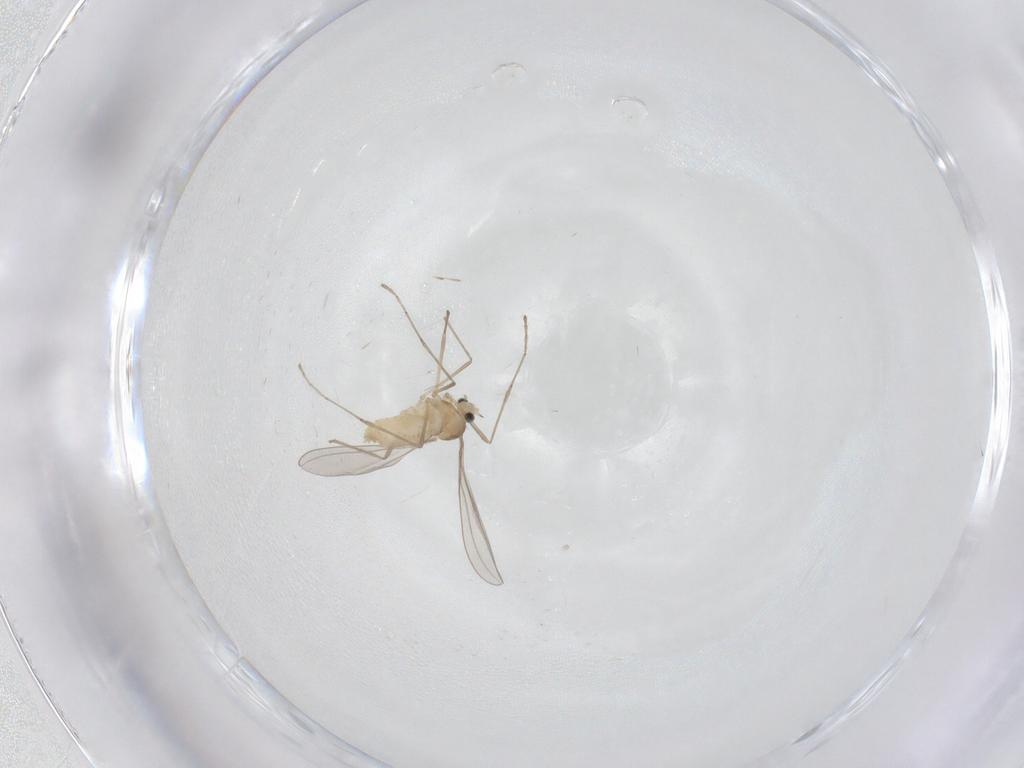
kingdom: Animalia
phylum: Arthropoda
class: Insecta
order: Diptera
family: Cecidomyiidae
